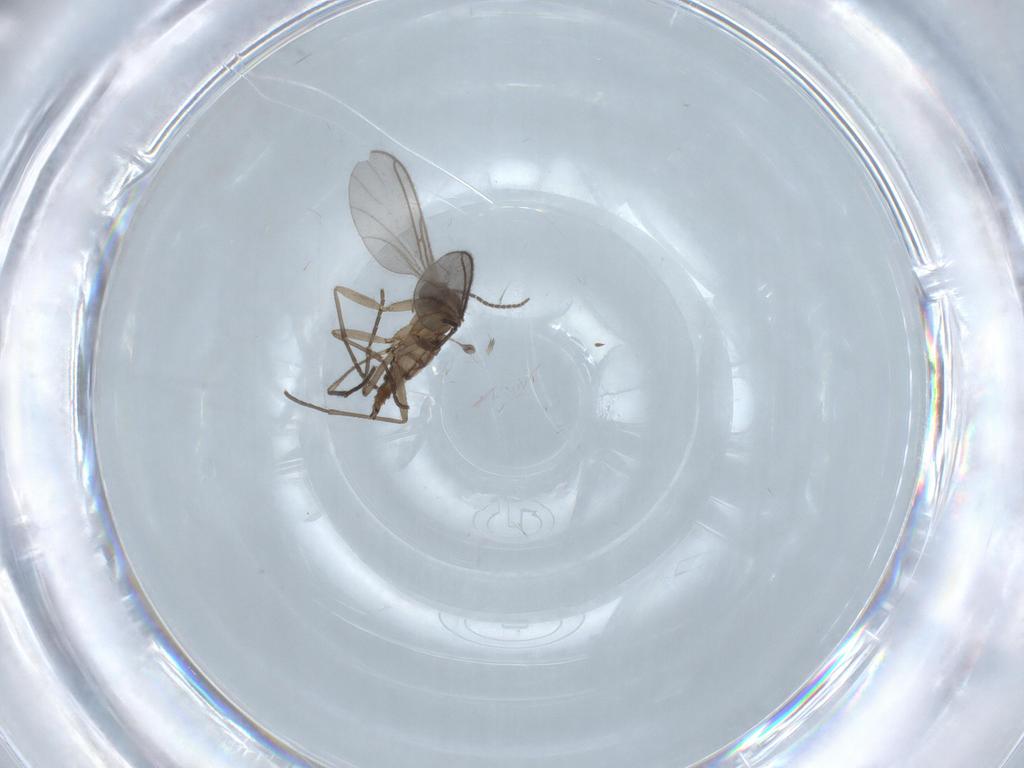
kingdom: Animalia
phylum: Arthropoda
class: Insecta
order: Diptera
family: Sciaridae
